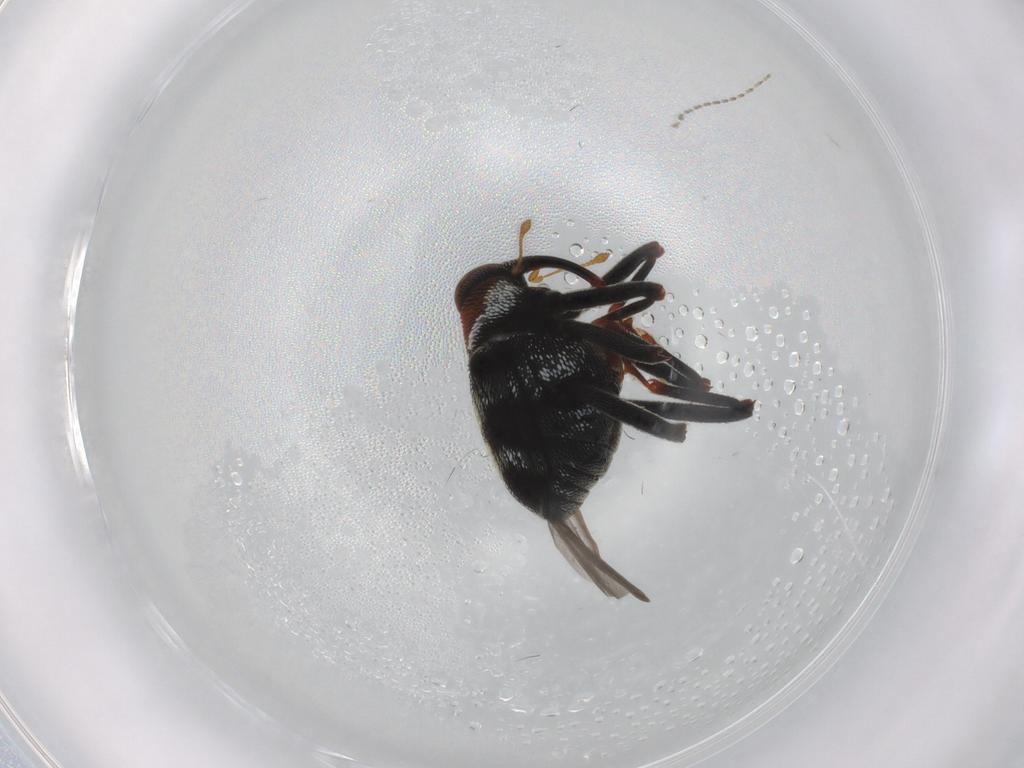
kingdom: Animalia
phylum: Arthropoda
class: Insecta
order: Coleoptera
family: Curculionidae
